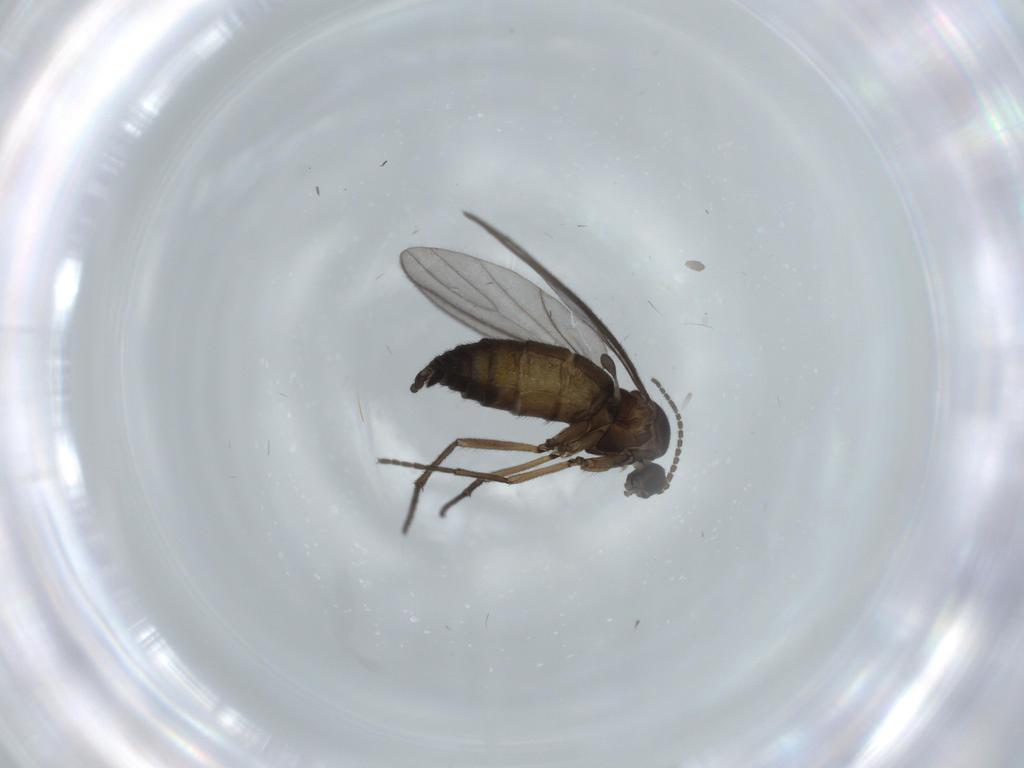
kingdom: Animalia
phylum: Arthropoda
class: Insecta
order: Diptera
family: Sciaridae
